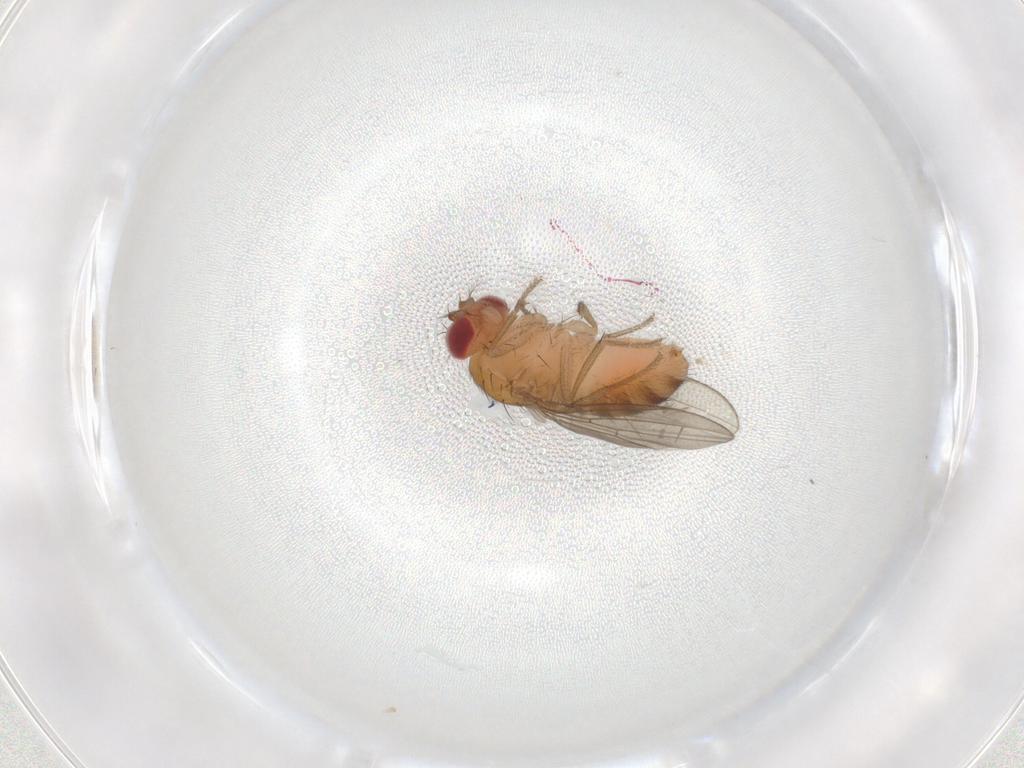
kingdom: Animalia
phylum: Arthropoda
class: Insecta
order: Diptera
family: Drosophilidae
